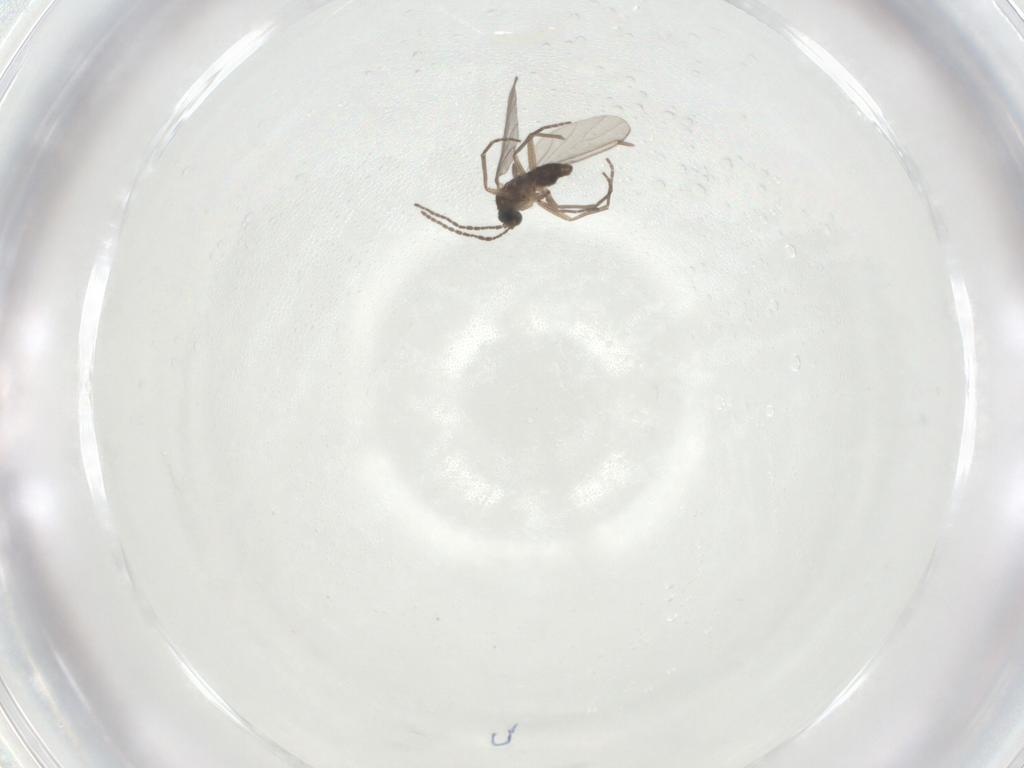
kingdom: Animalia
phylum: Arthropoda
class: Insecta
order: Diptera
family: Sciaridae
